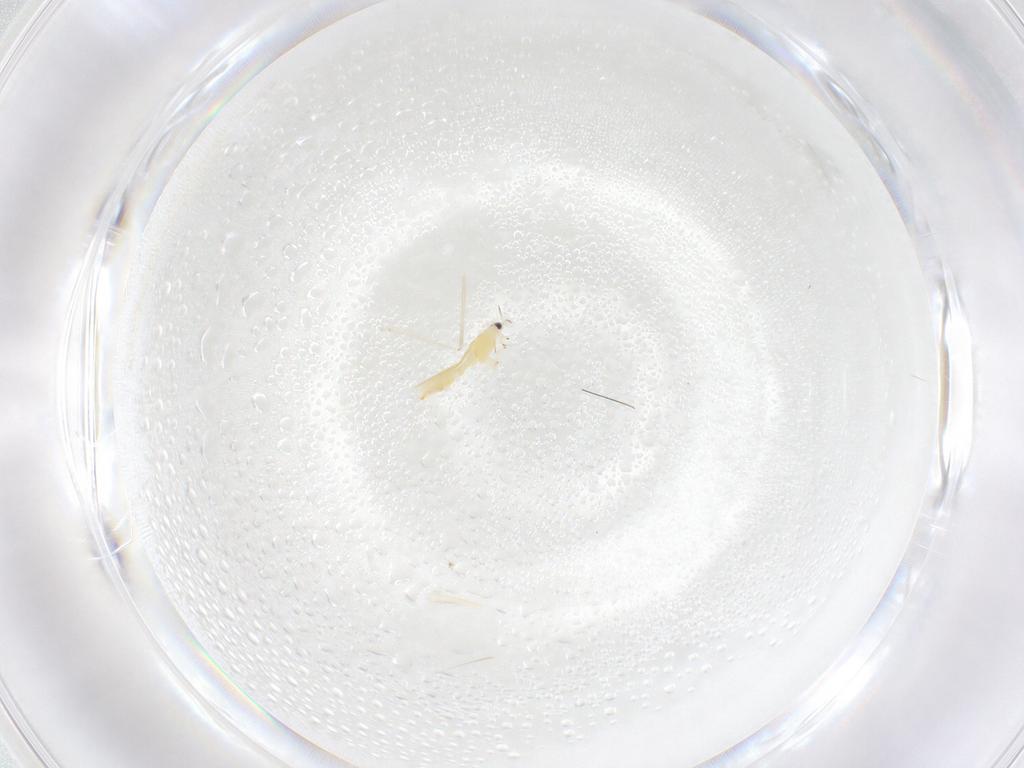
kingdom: Animalia
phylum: Arthropoda
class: Insecta
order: Thysanoptera
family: Thripidae
